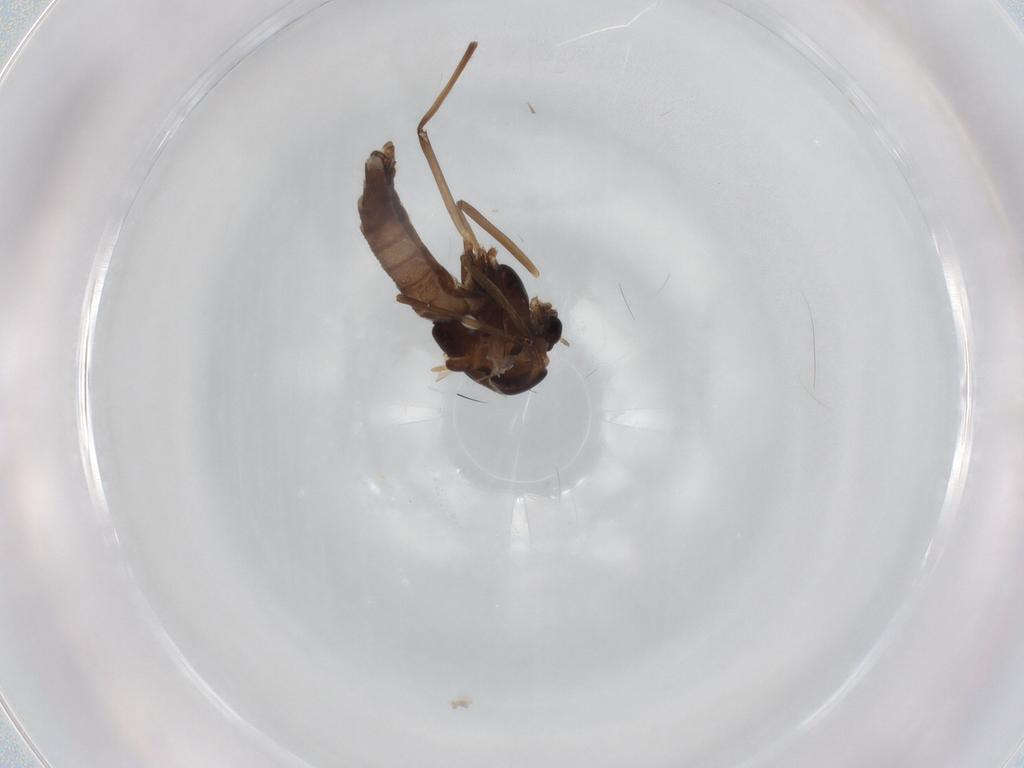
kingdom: Animalia
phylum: Arthropoda
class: Insecta
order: Diptera
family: Chironomidae
